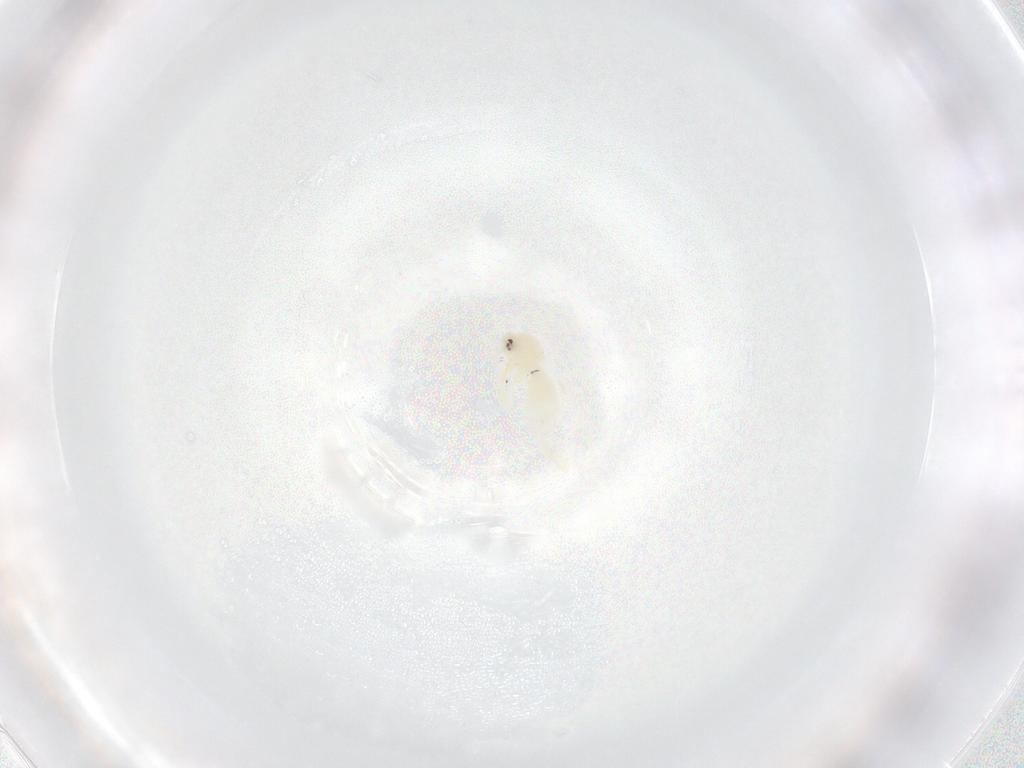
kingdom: Animalia
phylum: Arthropoda
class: Insecta
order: Hemiptera
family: Aleyrodidae
